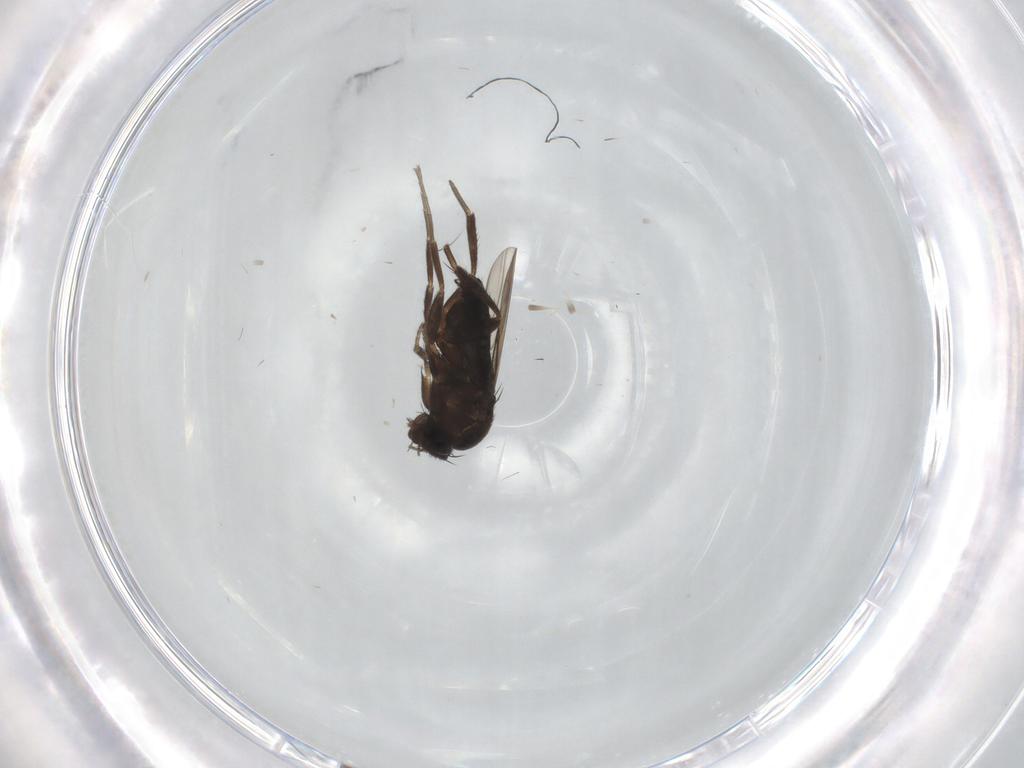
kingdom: Animalia
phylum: Arthropoda
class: Insecta
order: Diptera
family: Phoridae
